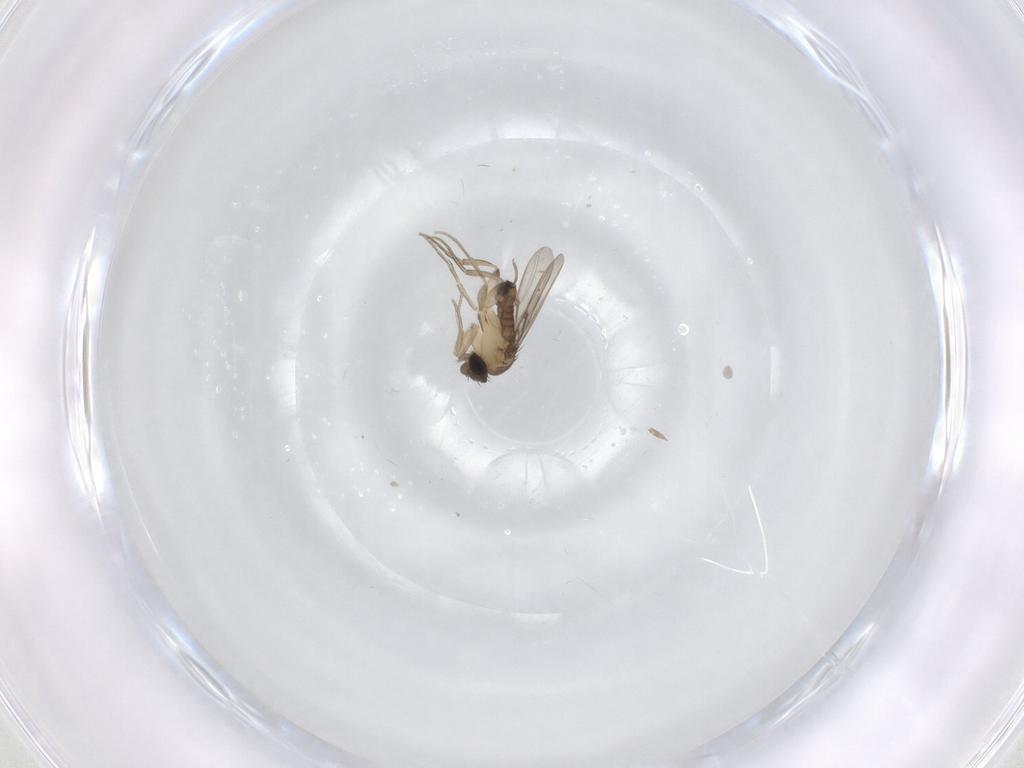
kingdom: Animalia
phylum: Arthropoda
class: Insecta
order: Diptera
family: Phoridae
